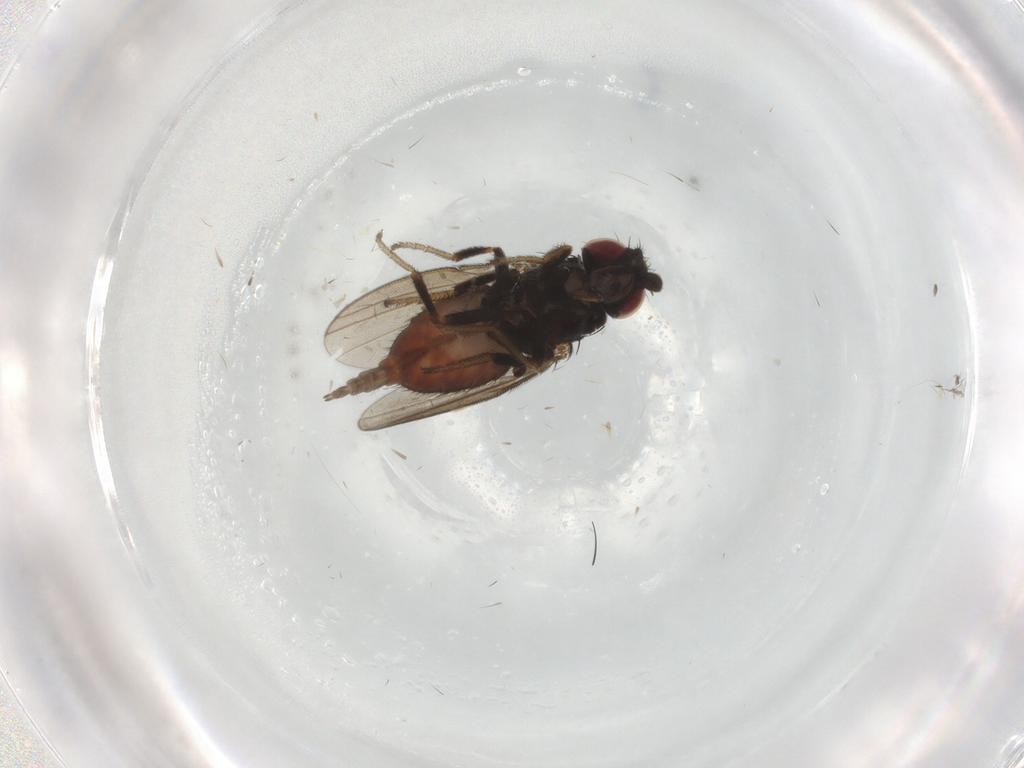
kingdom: Animalia
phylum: Arthropoda
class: Insecta
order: Diptera
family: Milichiidae
